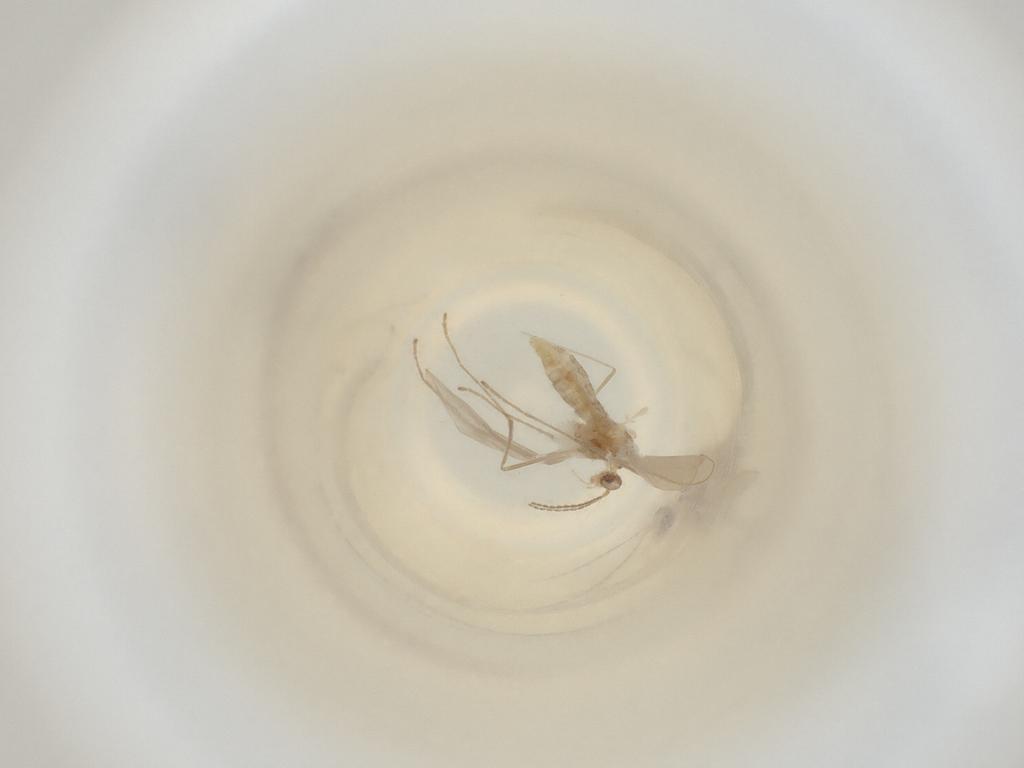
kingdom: Animalia
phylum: Arthropoda
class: Insecta
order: Diptera
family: Cecidomyiidae
